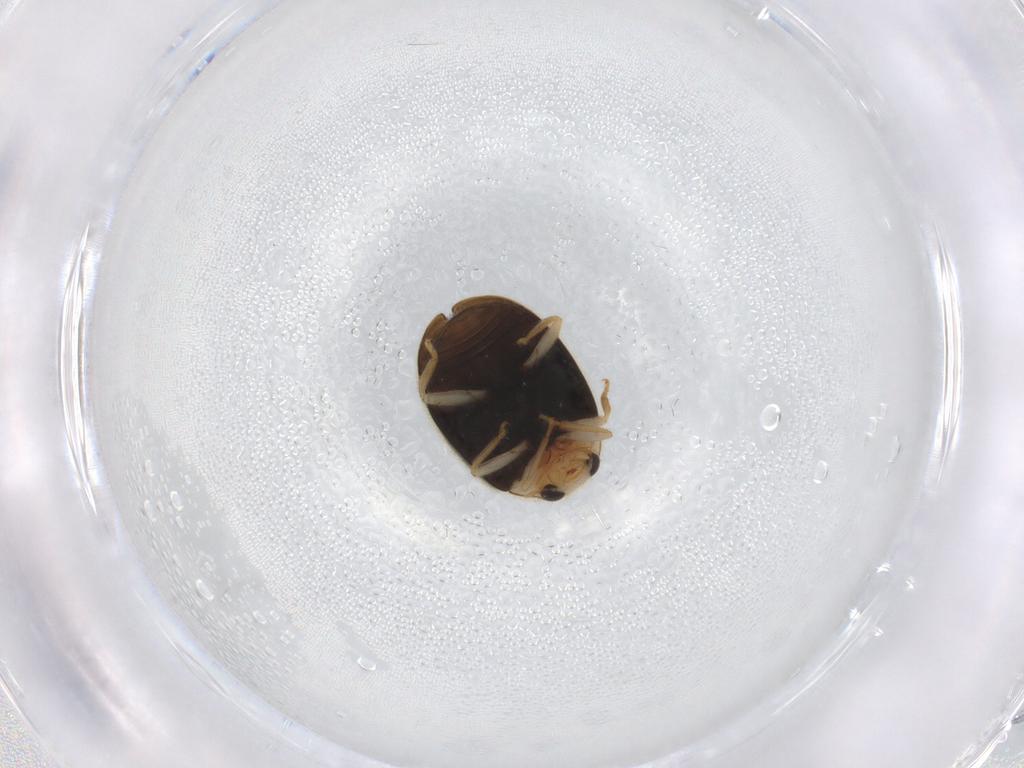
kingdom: Animalia
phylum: Arthropoda
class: Insecta
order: Coleoptera
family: Coccinellidae
